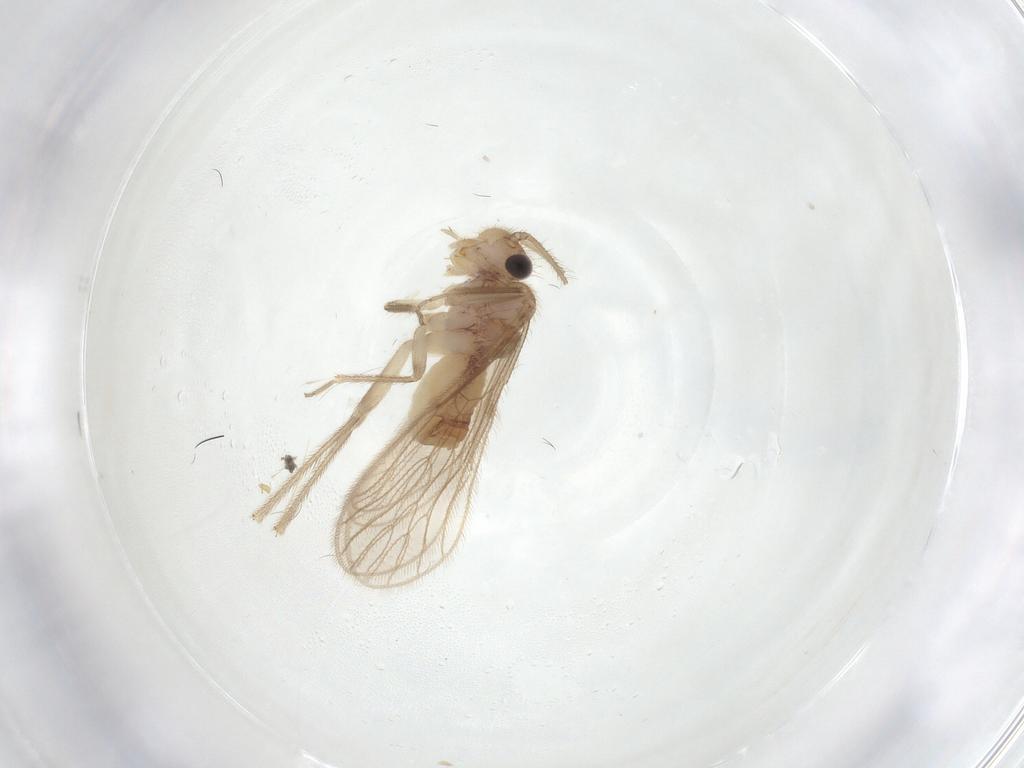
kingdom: Animalia
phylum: Arthropoda
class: Insecta
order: Psocodea
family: Cladiopsocidae
